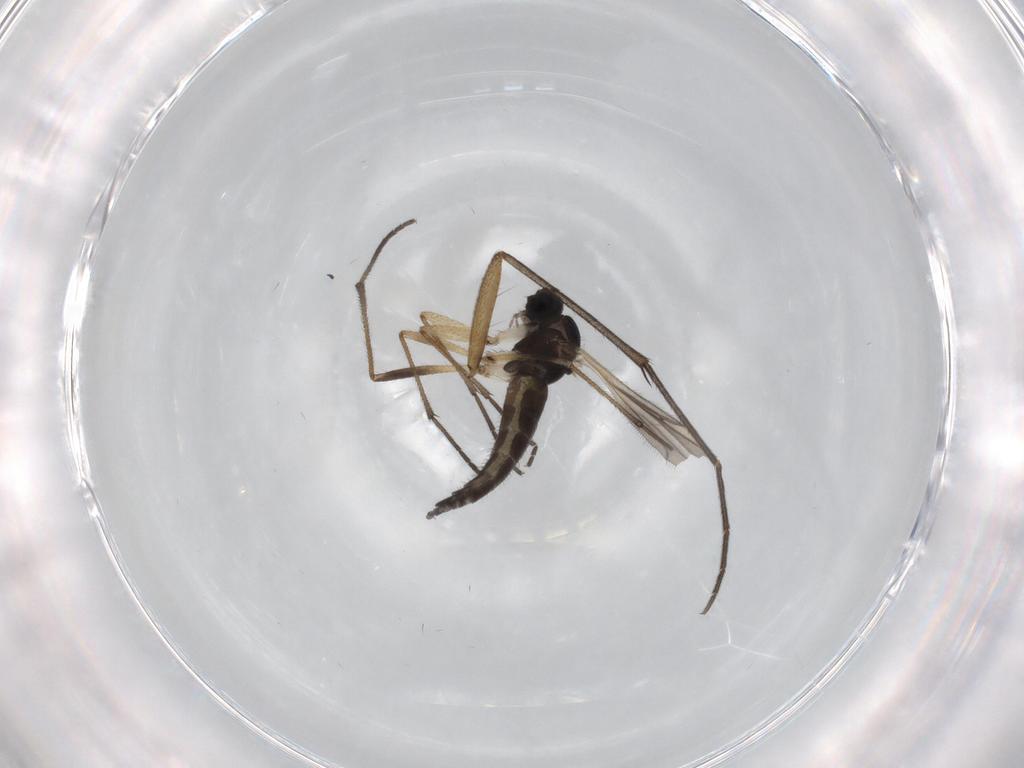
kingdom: Animalia
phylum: Arthropoda
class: Insecta
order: Diptera
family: Sciaridae
